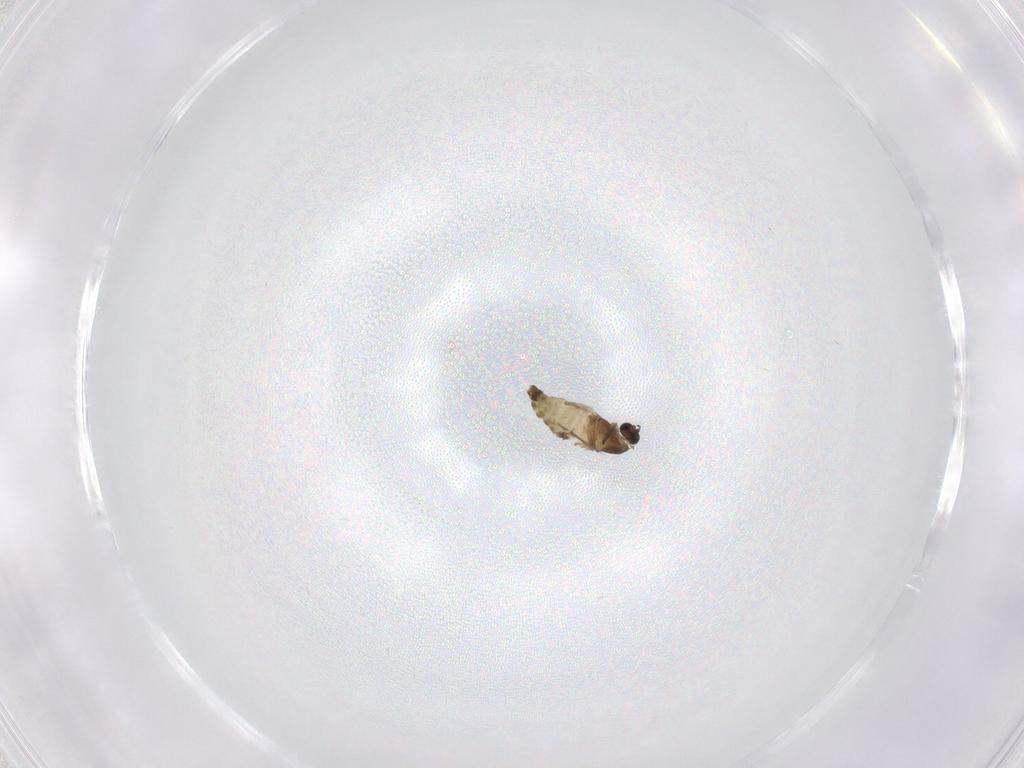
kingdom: Animalia
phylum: Arthropoda
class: Insecta
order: Diptera
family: Chironomidae
